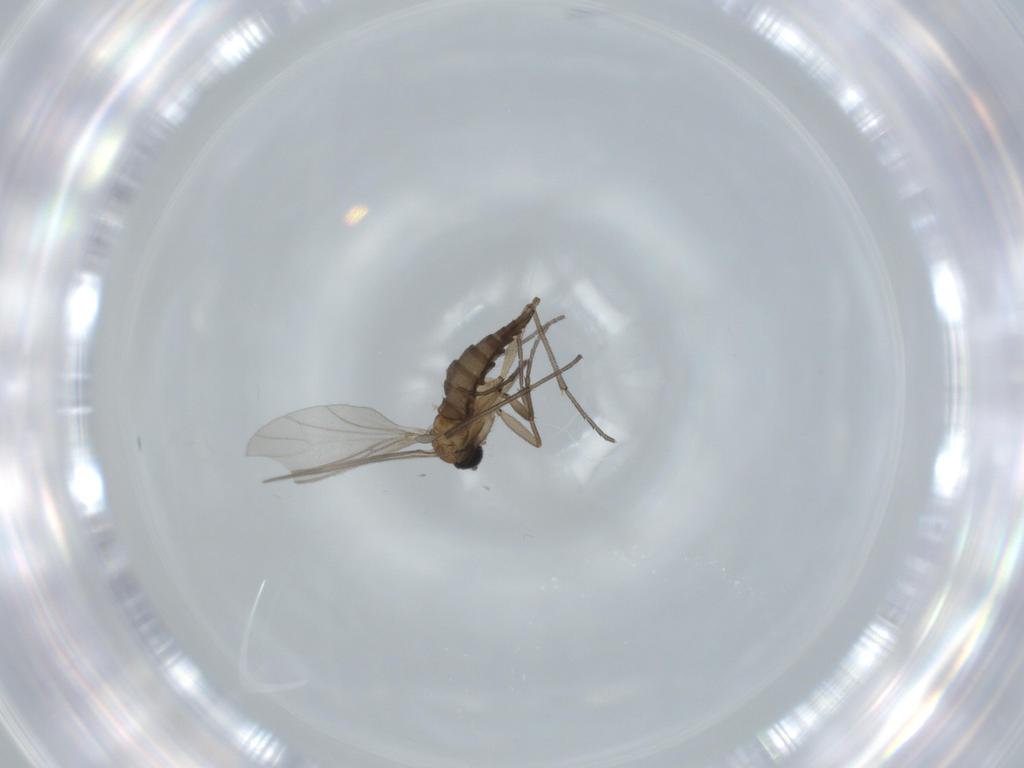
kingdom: Animalia
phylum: Arthropoda
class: Insecta
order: Diptera
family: Sciaridae
